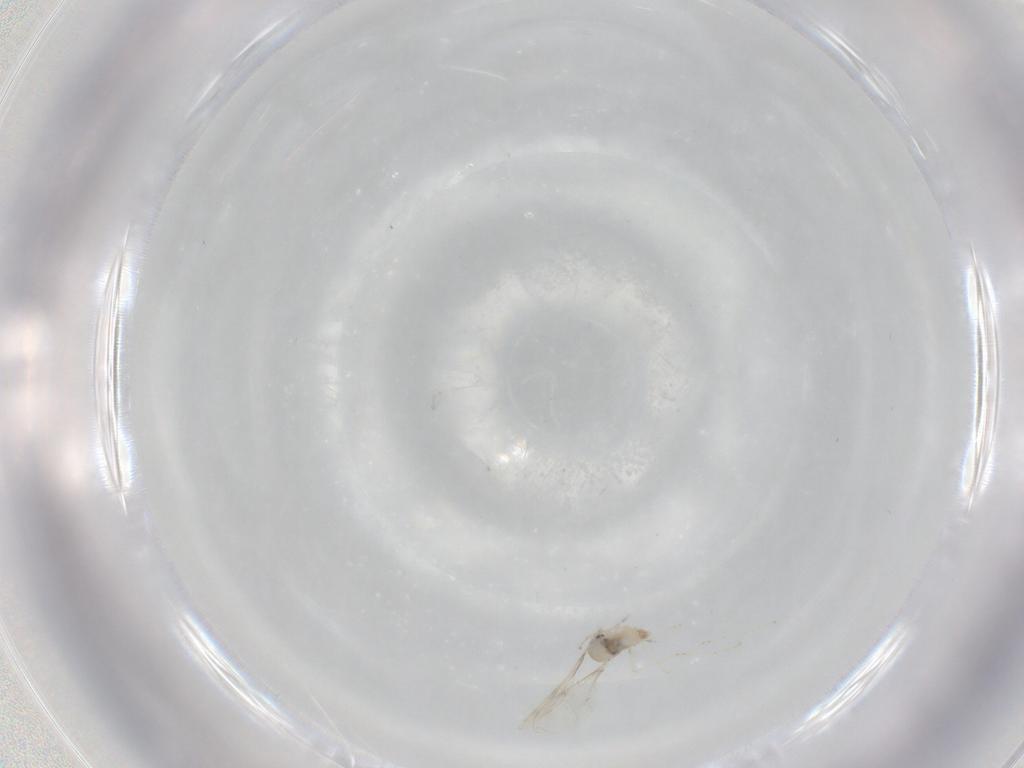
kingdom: Animalia
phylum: Arthropoda
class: Insecta
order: Diptera
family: Cecidomyiidae
